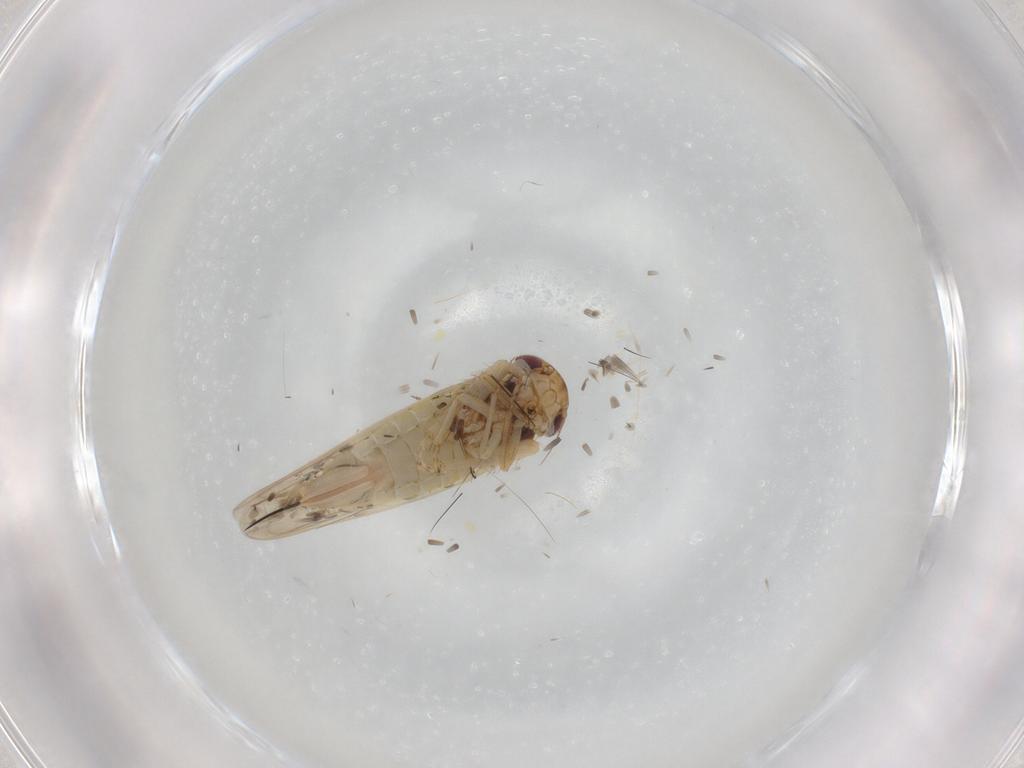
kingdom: Animalia
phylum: Arthropoda
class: Insecta
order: Hemiptera
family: Cicadellidae
